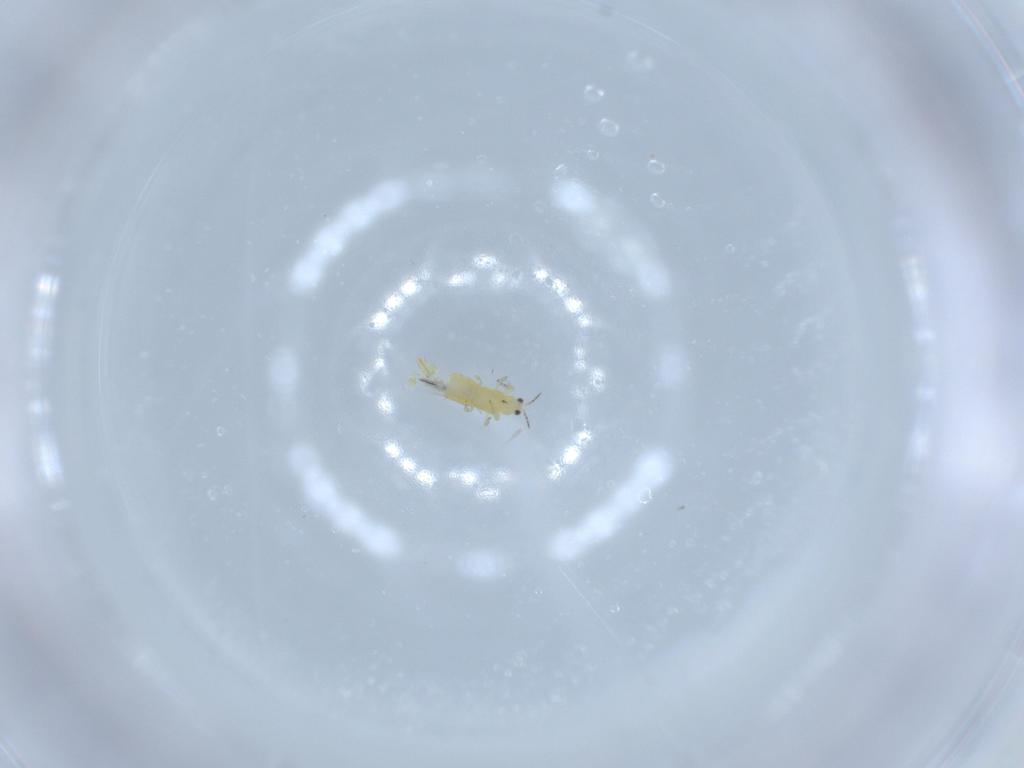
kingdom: Animalia
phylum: Arthropoda
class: Insecta
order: Thysanoptera
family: Thripidae
